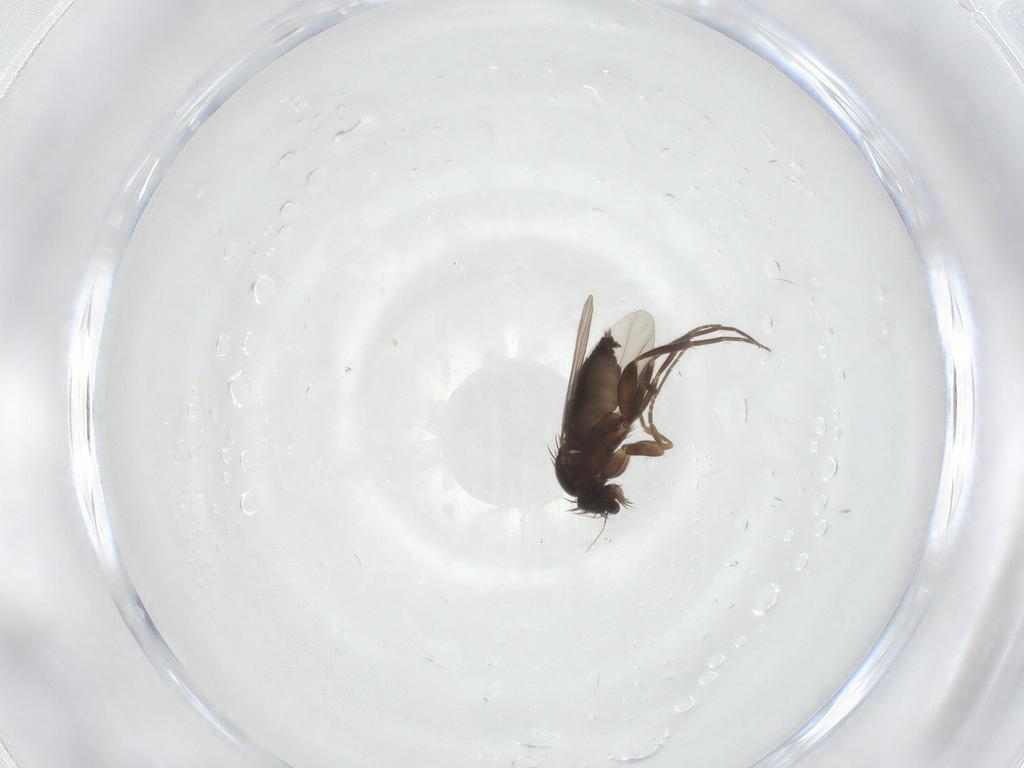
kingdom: Animalia
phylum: Arthropoda
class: Insecta
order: Diptera
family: Phoridae
